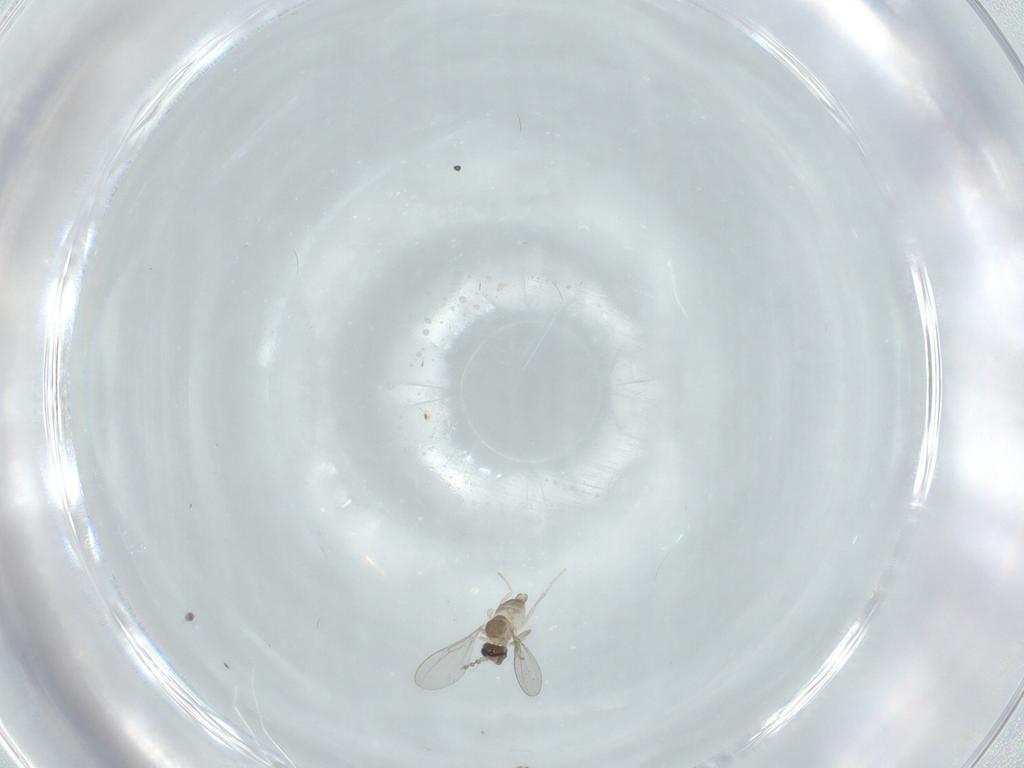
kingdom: Animalia
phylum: Arthropoda
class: Insecta
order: Diptera
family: Cecidomyiidae
